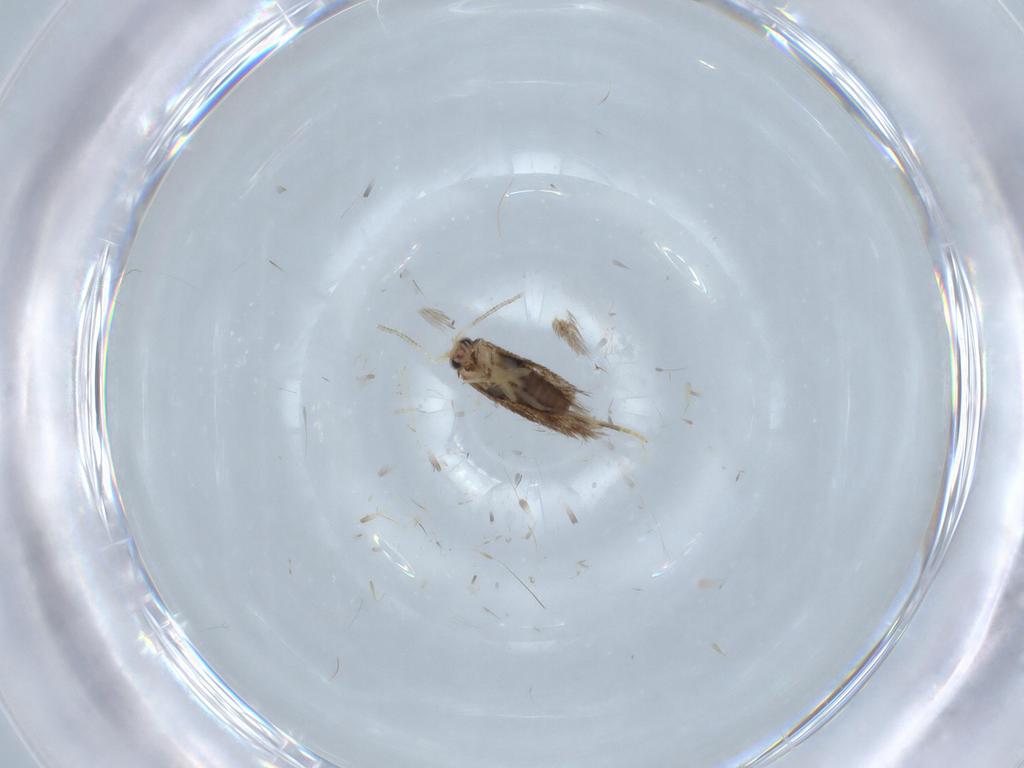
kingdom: Animalia
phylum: Arthropoda
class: Insecta
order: Lepidoptera
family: Nepticulidae
